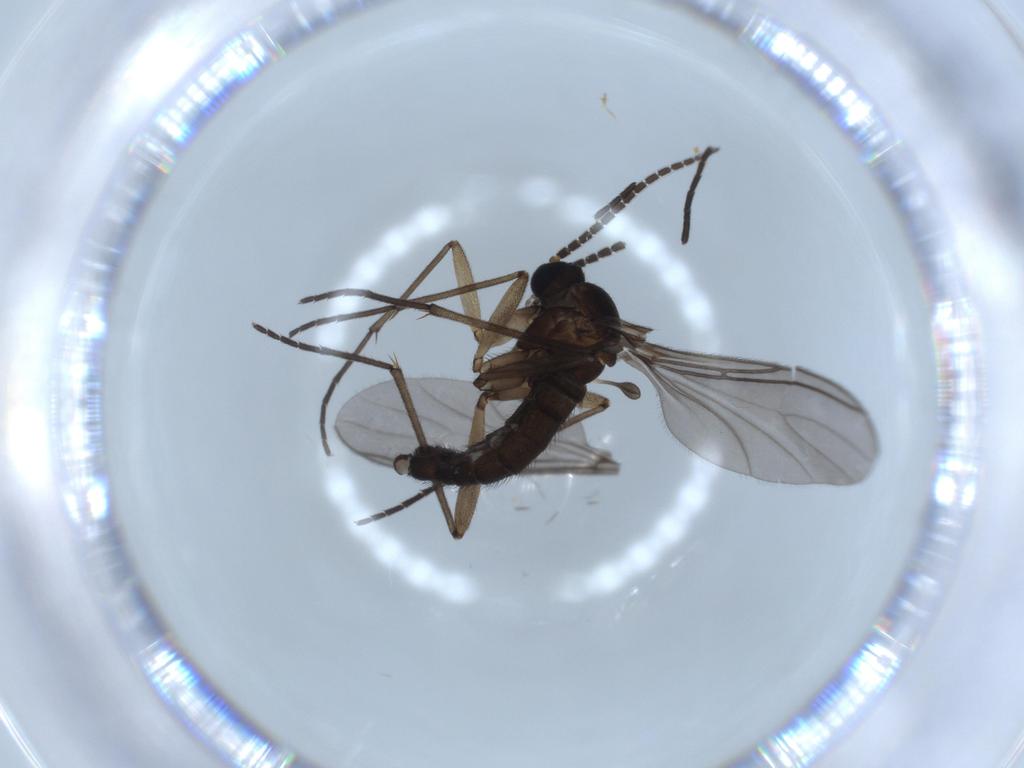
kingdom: Animalia
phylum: Arthropoda
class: Insecta
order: Diptera
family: Sciaridae
